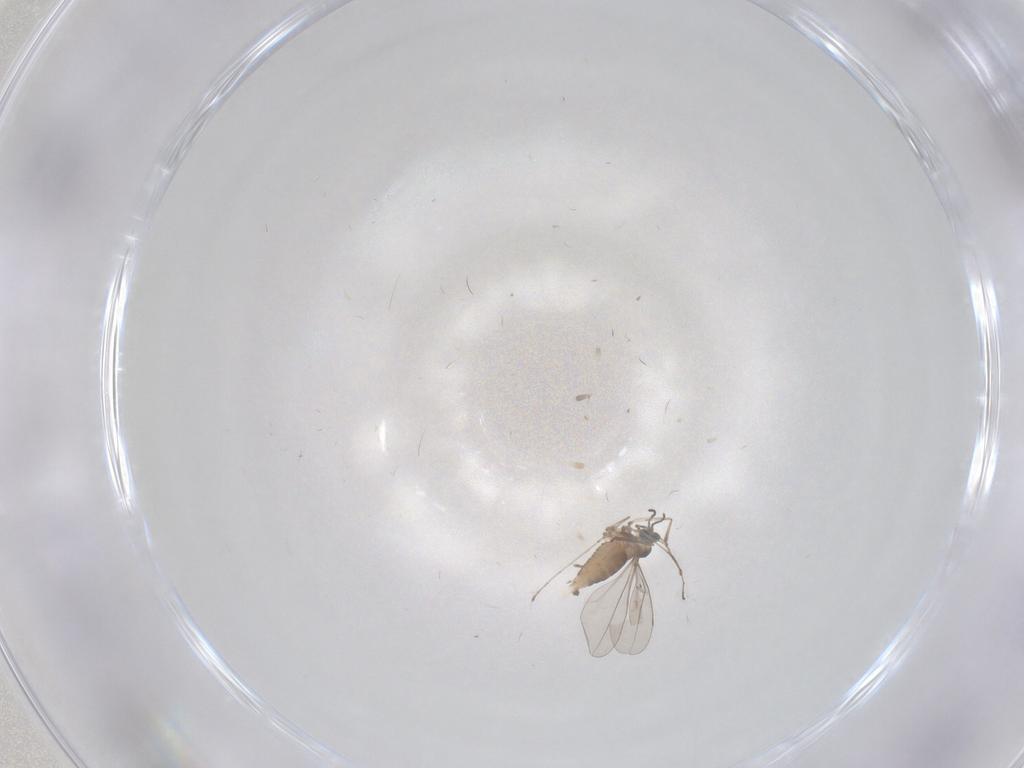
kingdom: Animalia
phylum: Arthropoda
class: Insecta
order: Diptera
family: Cecidomyiidae
